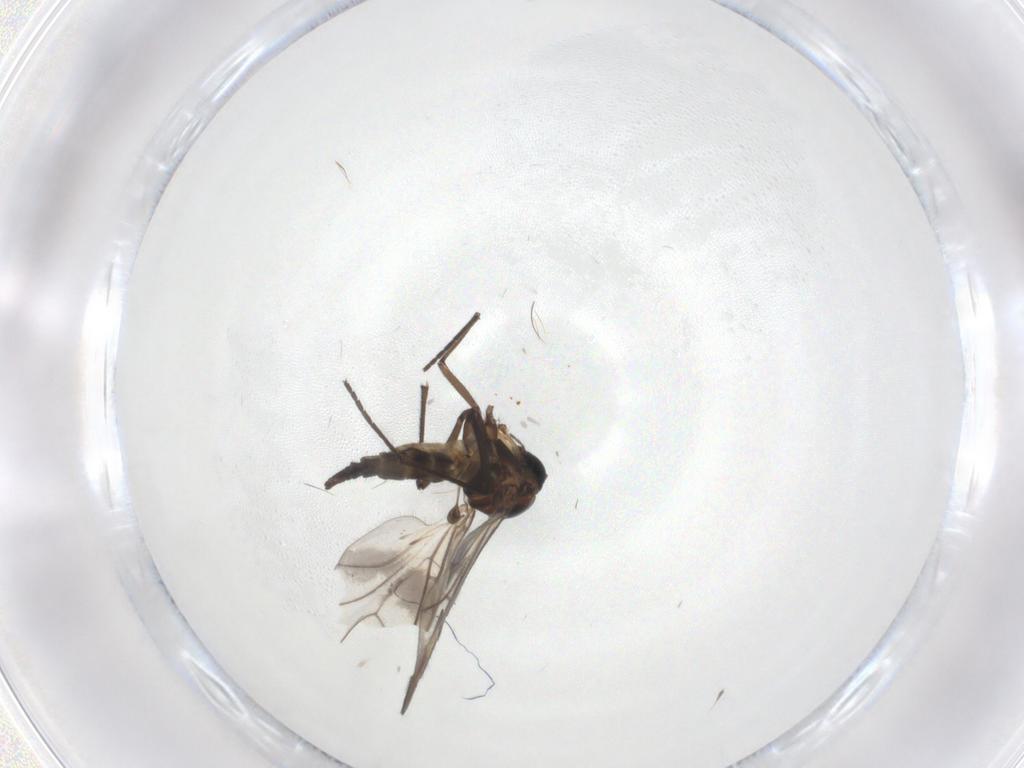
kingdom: Animalia
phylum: Arthropoda
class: Insecta
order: Diptera
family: Sciaridae
